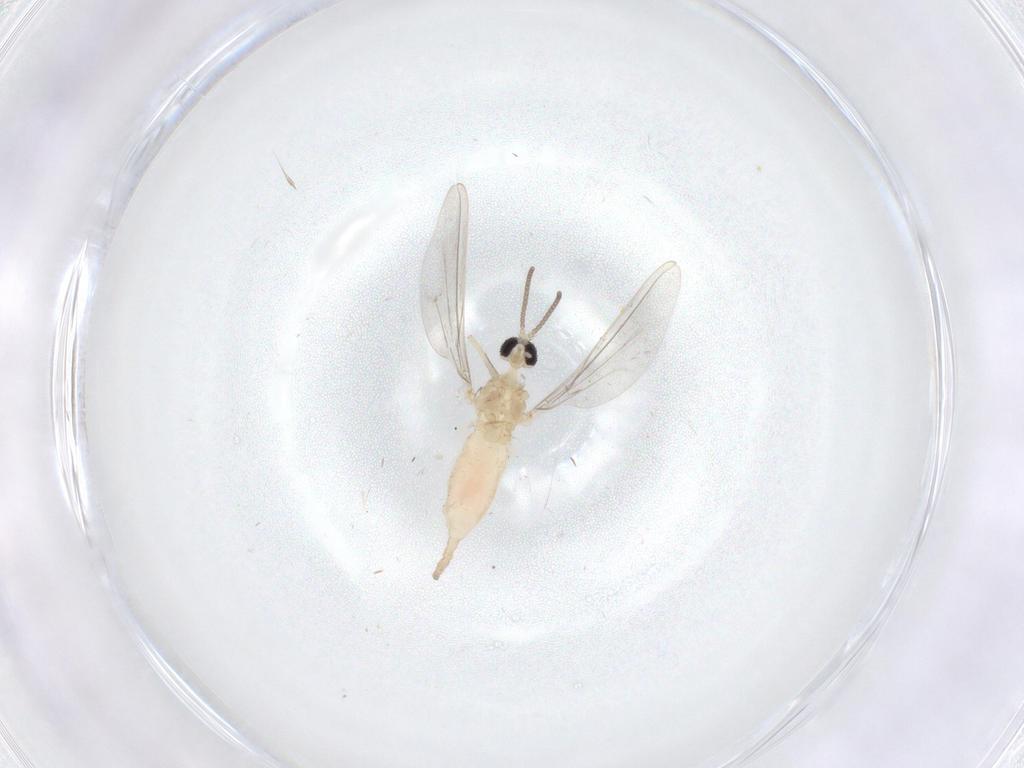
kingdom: Animalia
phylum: Arthropoda
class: Insecta
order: Diptera
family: Cecidomyiidae
